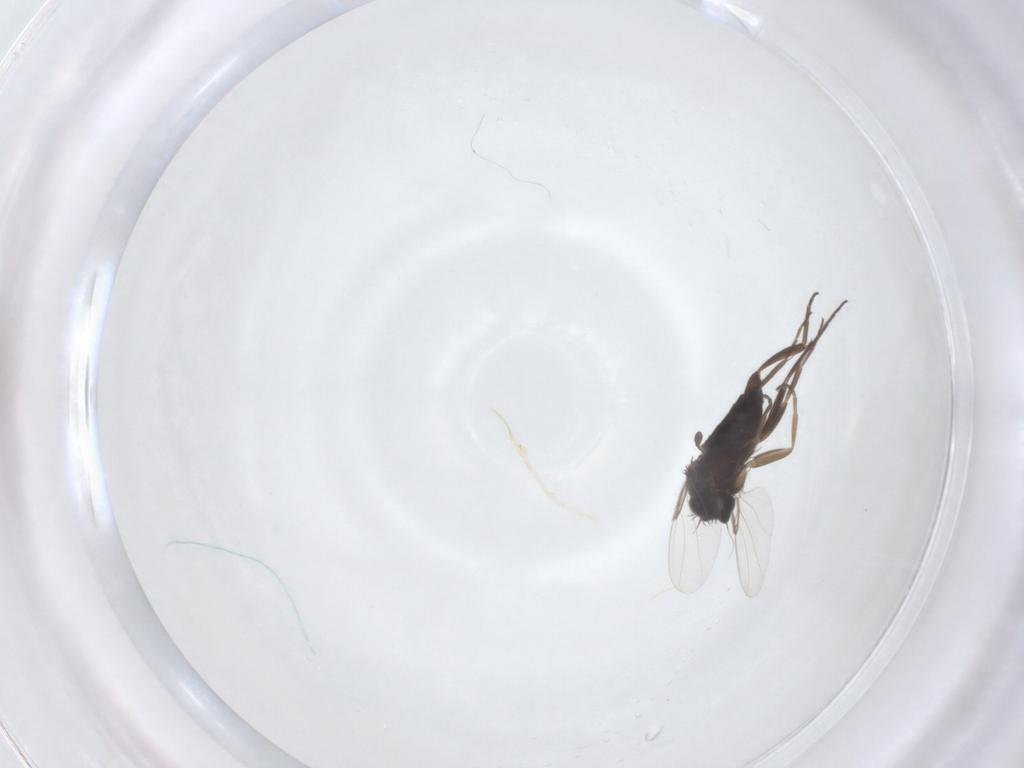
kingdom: Animalia
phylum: Arthropoda
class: Insecta
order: Diptera
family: Phoridae
